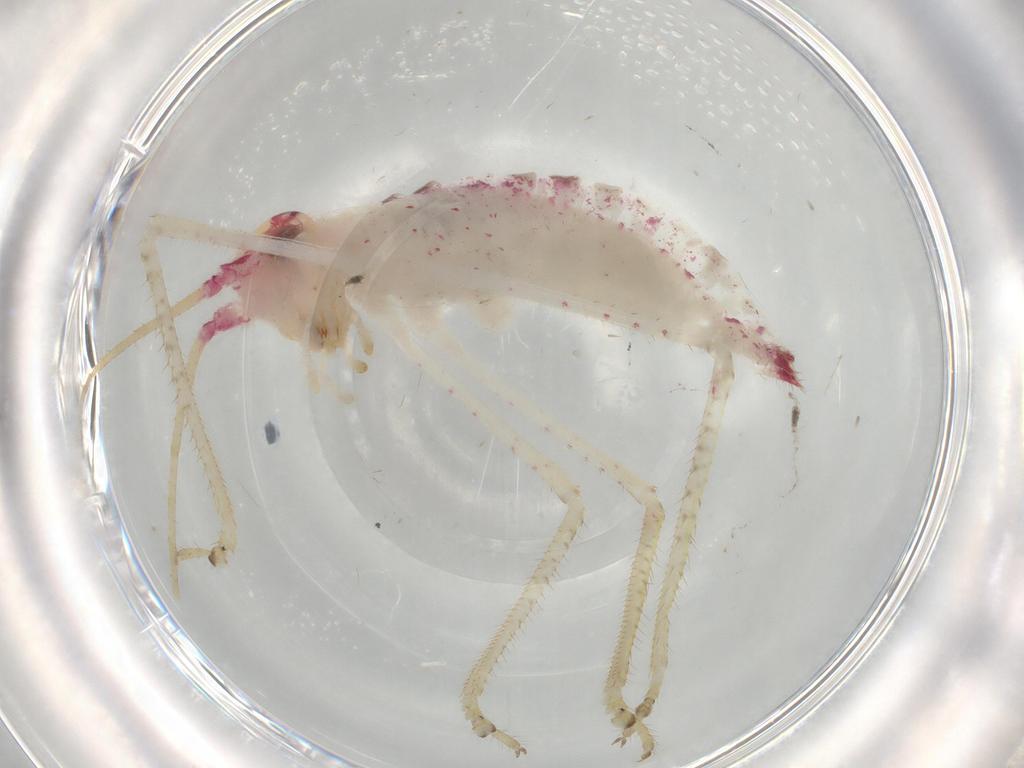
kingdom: Animalia
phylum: Arthropoda
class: Insecta
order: Orthoptera
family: Tettigoniidae
